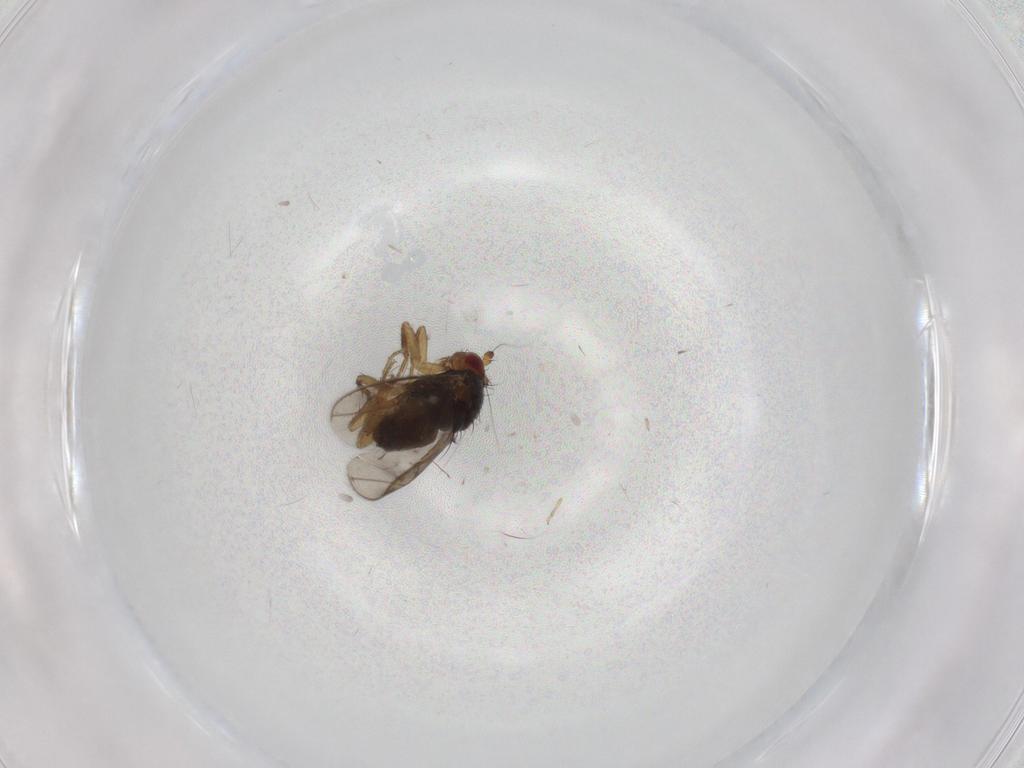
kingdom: Animalia
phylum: Arthropoda
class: Insecta
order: Diptera
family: Sphaeroceridae
